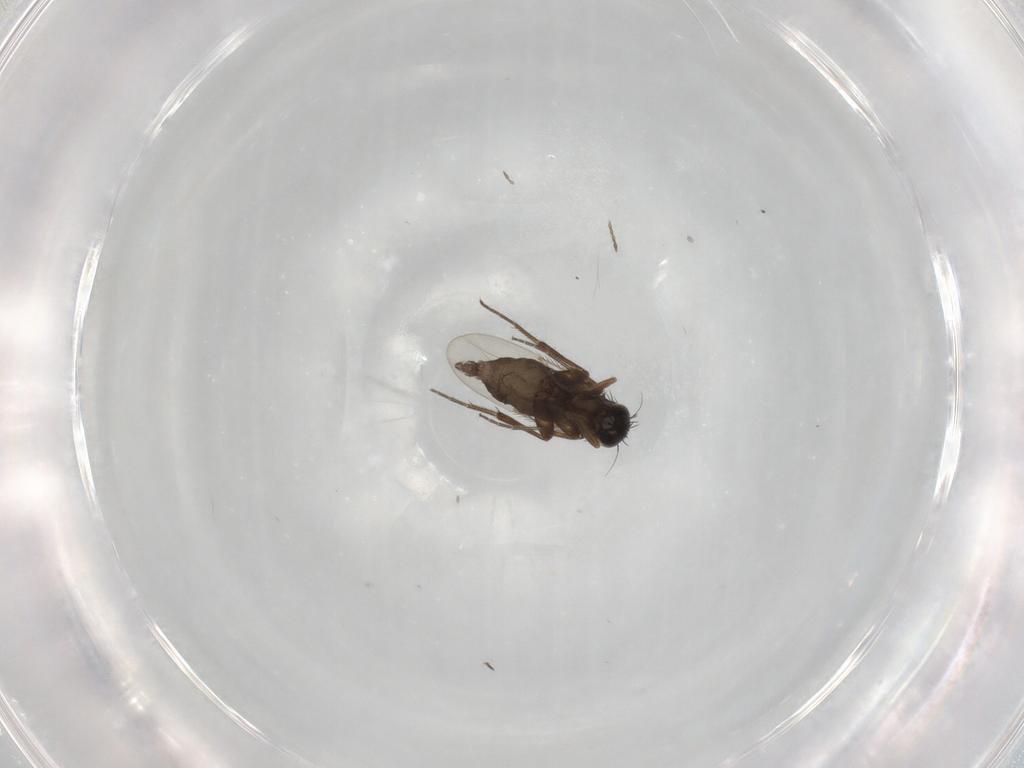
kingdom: Animalia
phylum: Arthropoda
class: Insecta
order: Diptera
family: Phoridae
